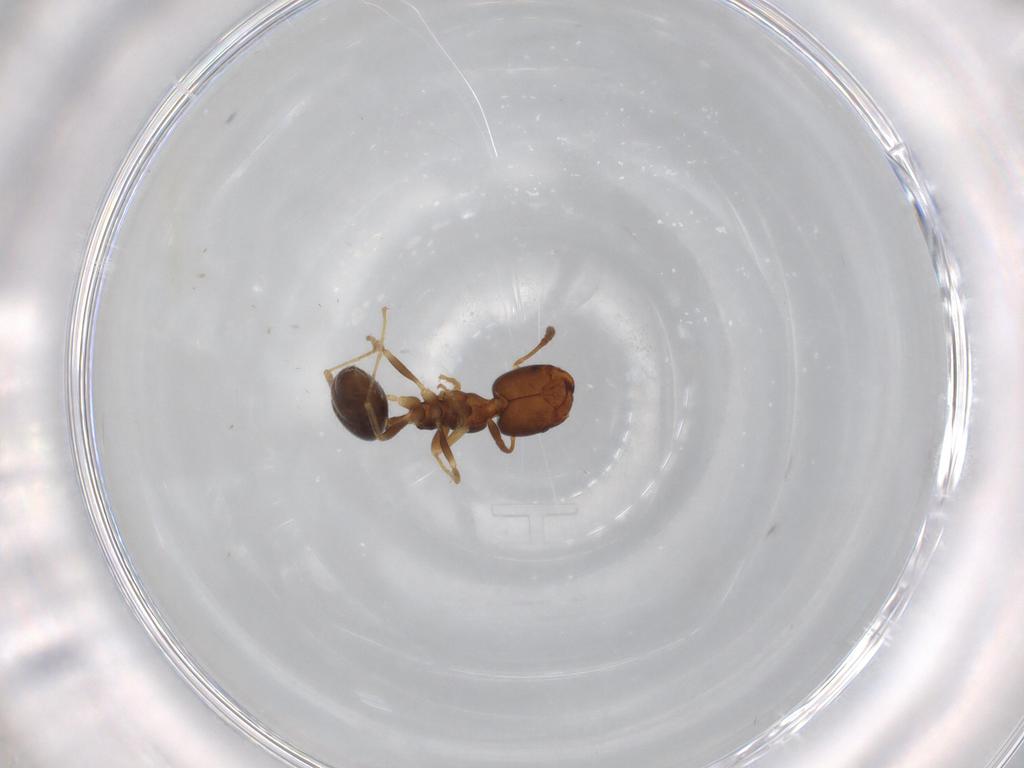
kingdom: Animalia
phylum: Arthropoda
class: Insecta
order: Hymenoptera
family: Formicidae
